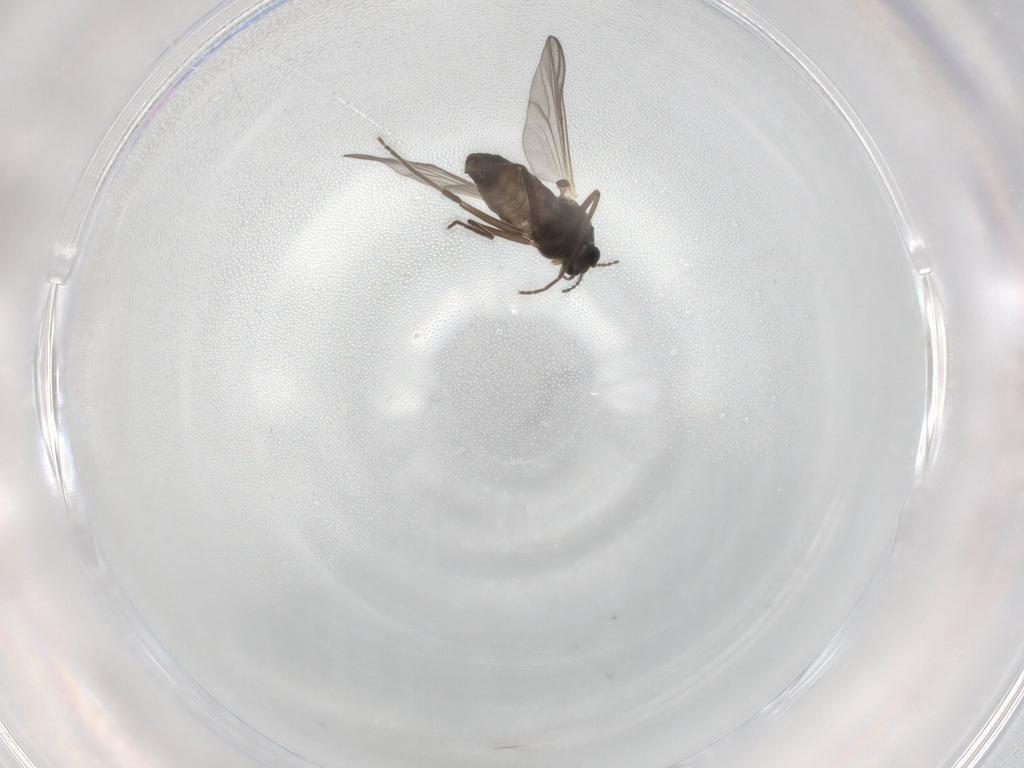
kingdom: Animalia
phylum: Arthropoda
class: Insecta
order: Diptera
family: Chironomidae
